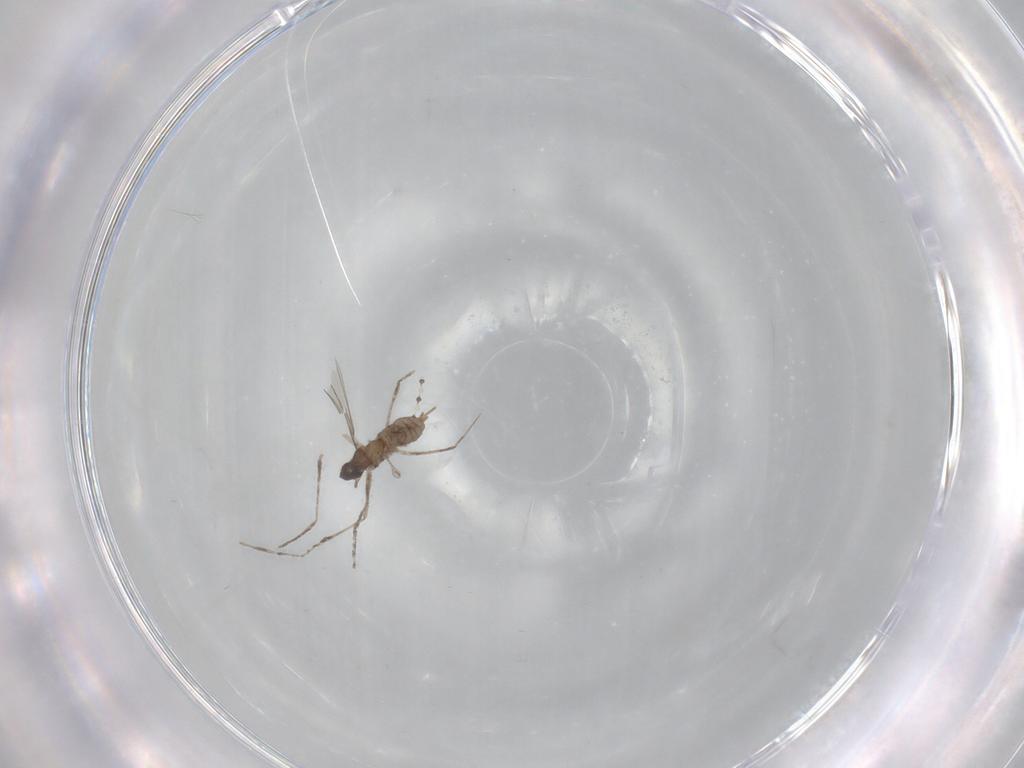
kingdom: Animalia
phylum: Arthropoda
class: Insecta
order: Diptera
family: Cecidomyiidae
